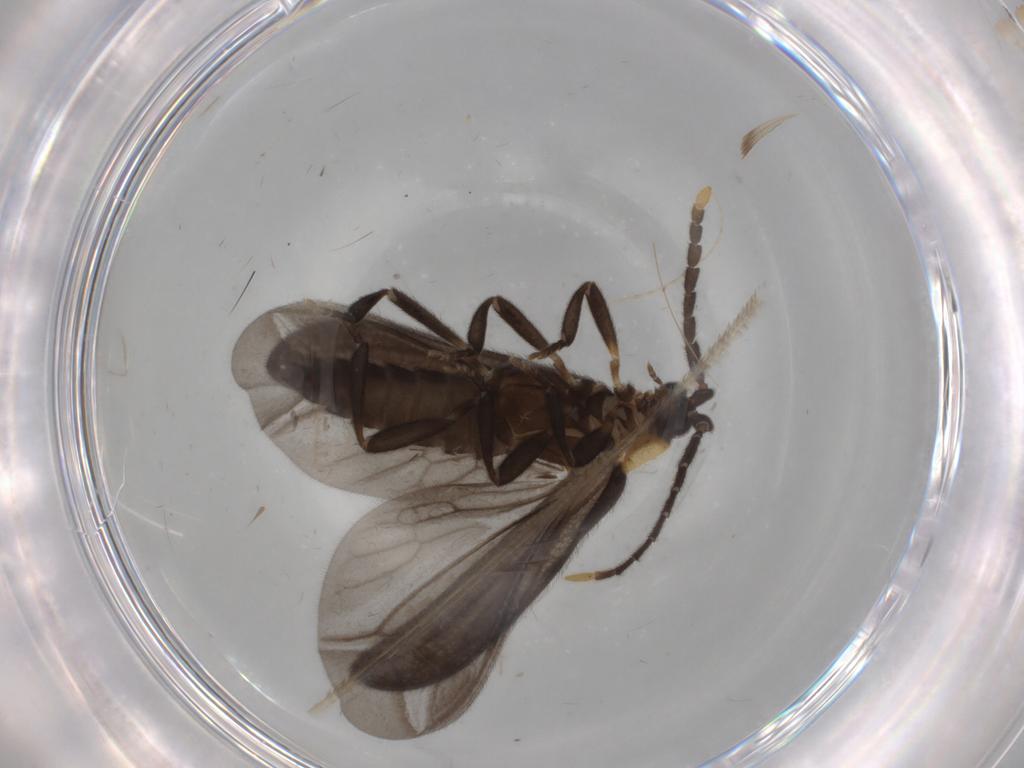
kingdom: Animalia
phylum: Arthropoda
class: Insecta
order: Coleoptera
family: Lycidae
